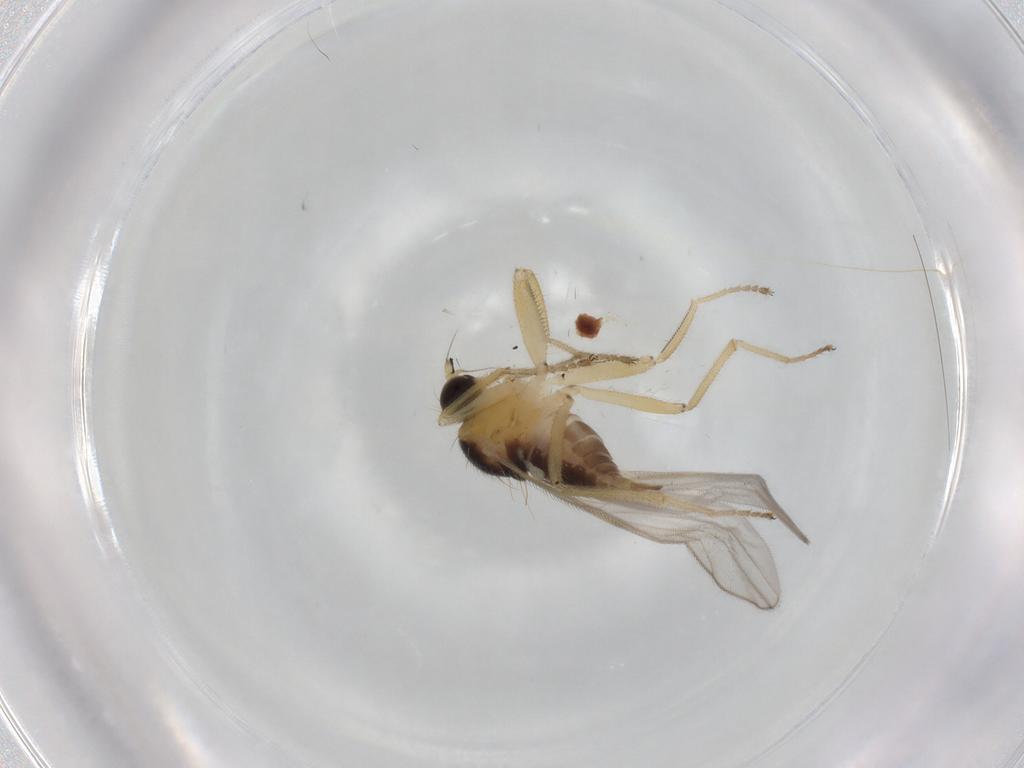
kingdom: Animalia
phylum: Arthropoda
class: Insecta
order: Diptera
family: Hybotidae
